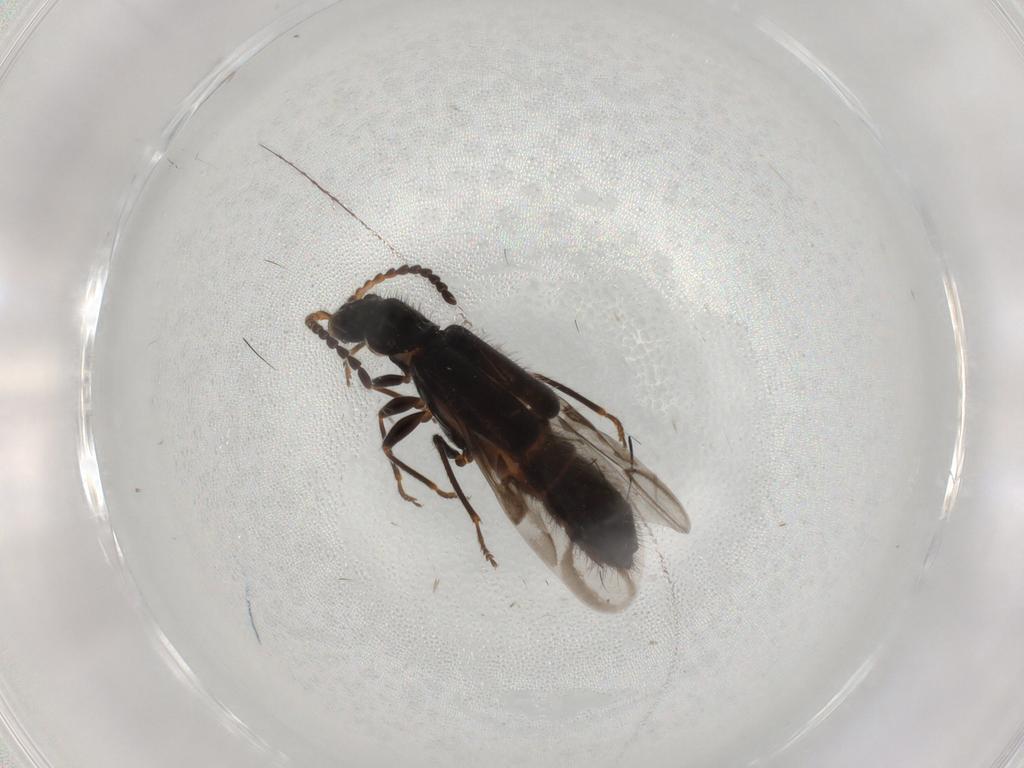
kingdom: Animalia
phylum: Arthropoda
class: Insecta
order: Coleoptera
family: Melyridae
